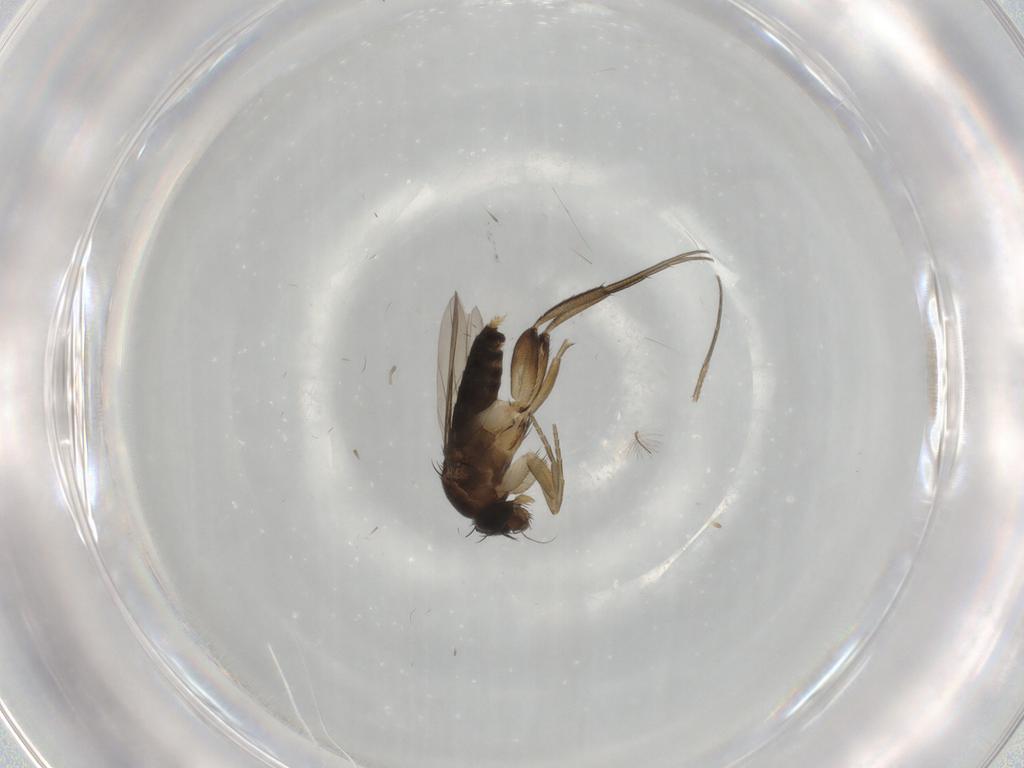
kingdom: Animalia
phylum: Arthropoda
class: Insecta
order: Diptera
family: Phoridae
